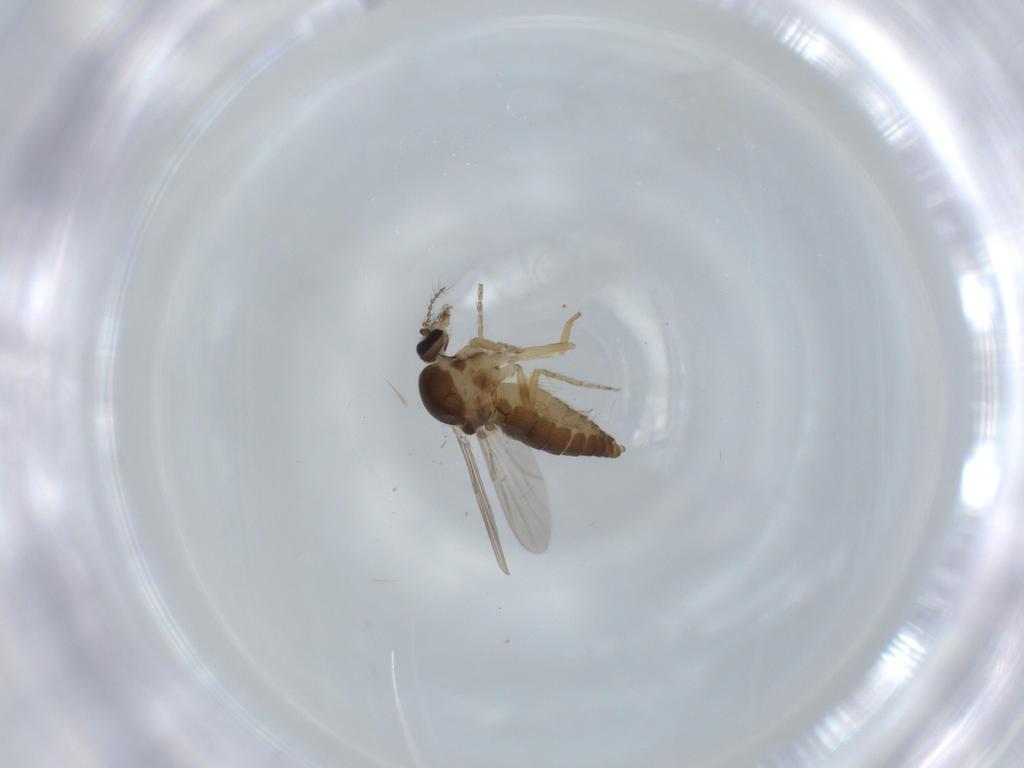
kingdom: Animalia
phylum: Arthropoda
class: Insecta
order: Diptera
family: Ceratopogonidae
